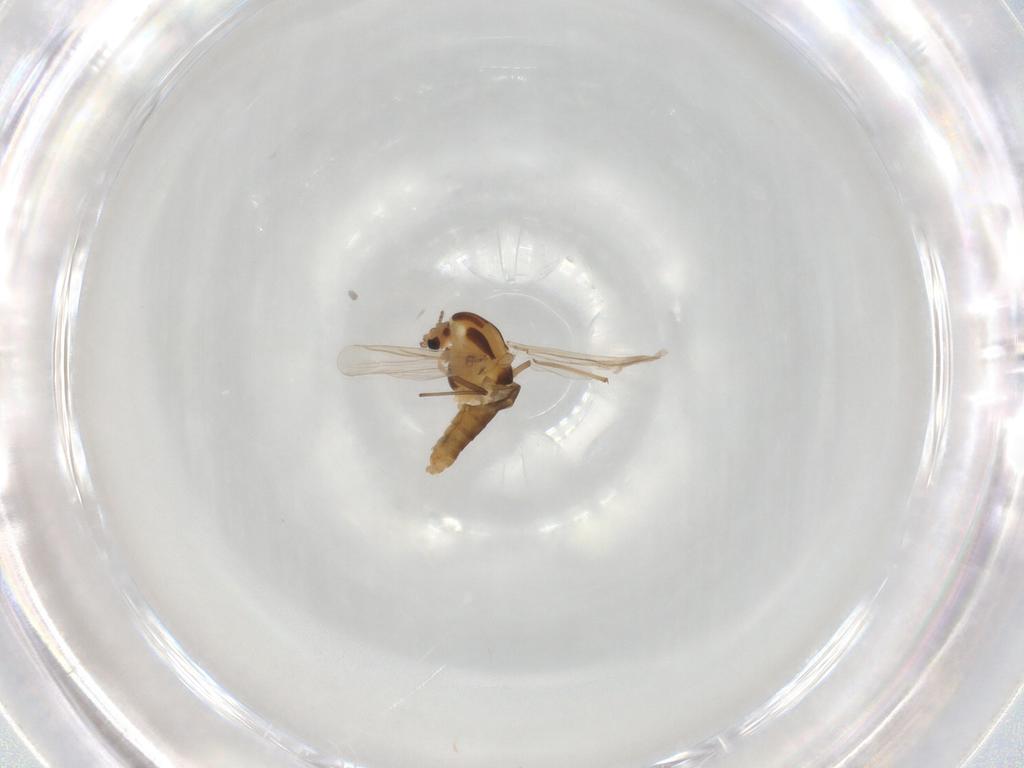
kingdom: Animalia
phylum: Arthropoda
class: Insecta
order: Diptera
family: Chironomidae
